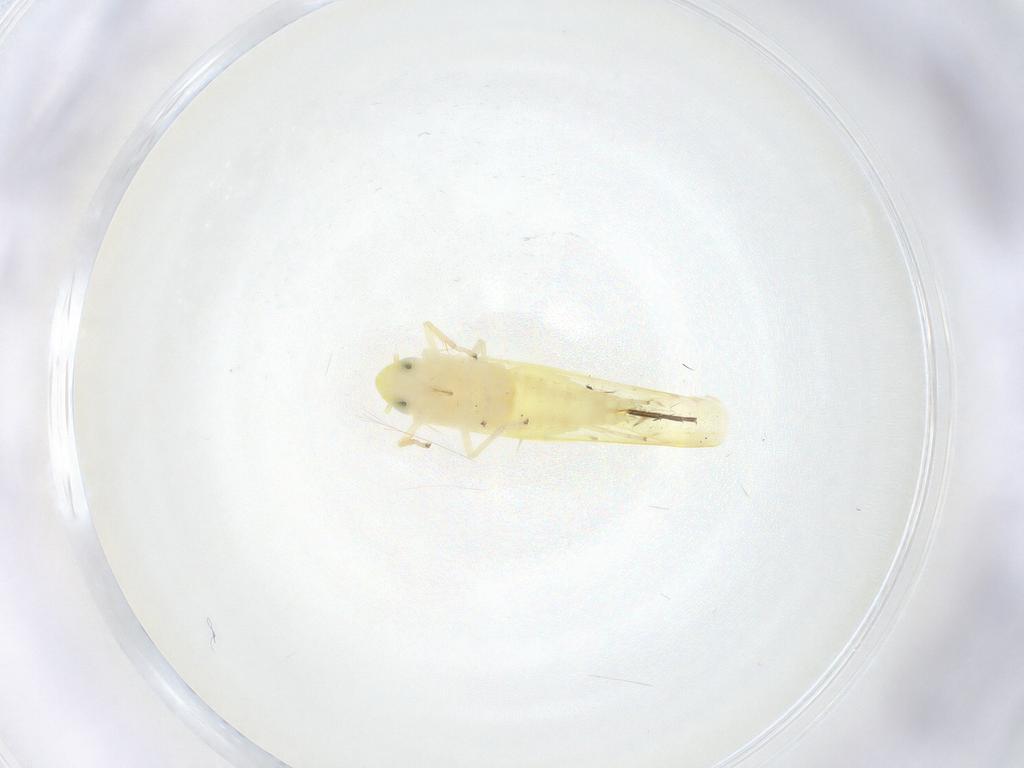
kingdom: Animalia
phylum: Arthropoda
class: Insecta
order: Hemiptera
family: Cicadellidae
